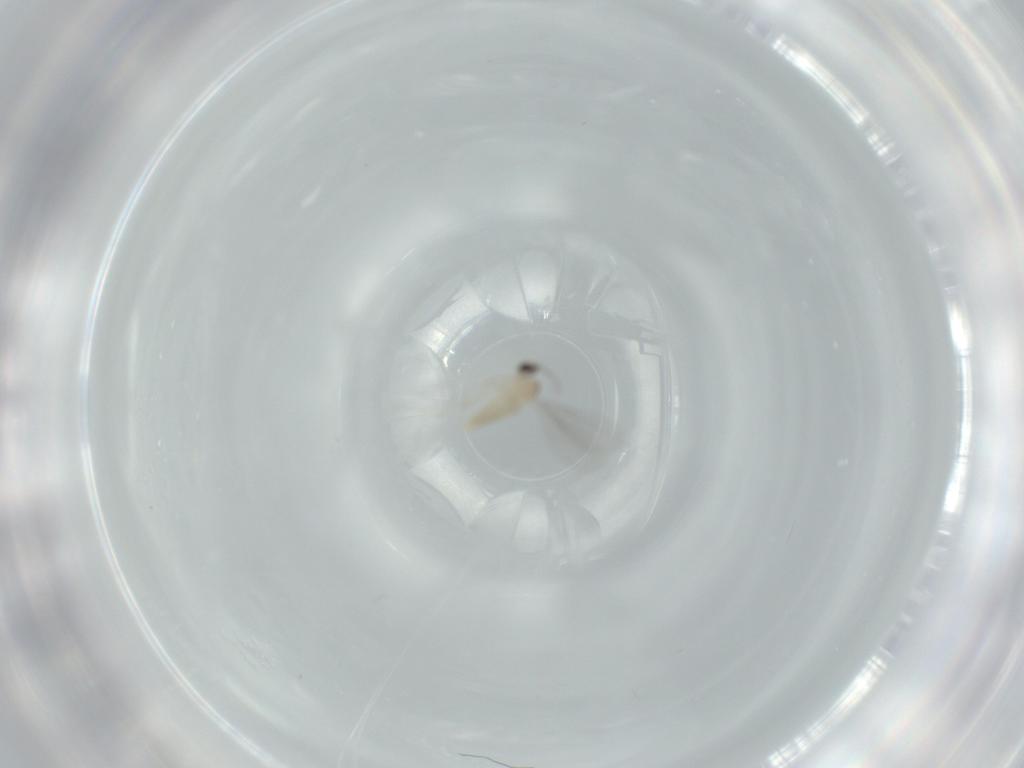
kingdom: Animalia
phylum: Arthropoda
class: Insecta
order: Diptera
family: Cecidomyiidae
